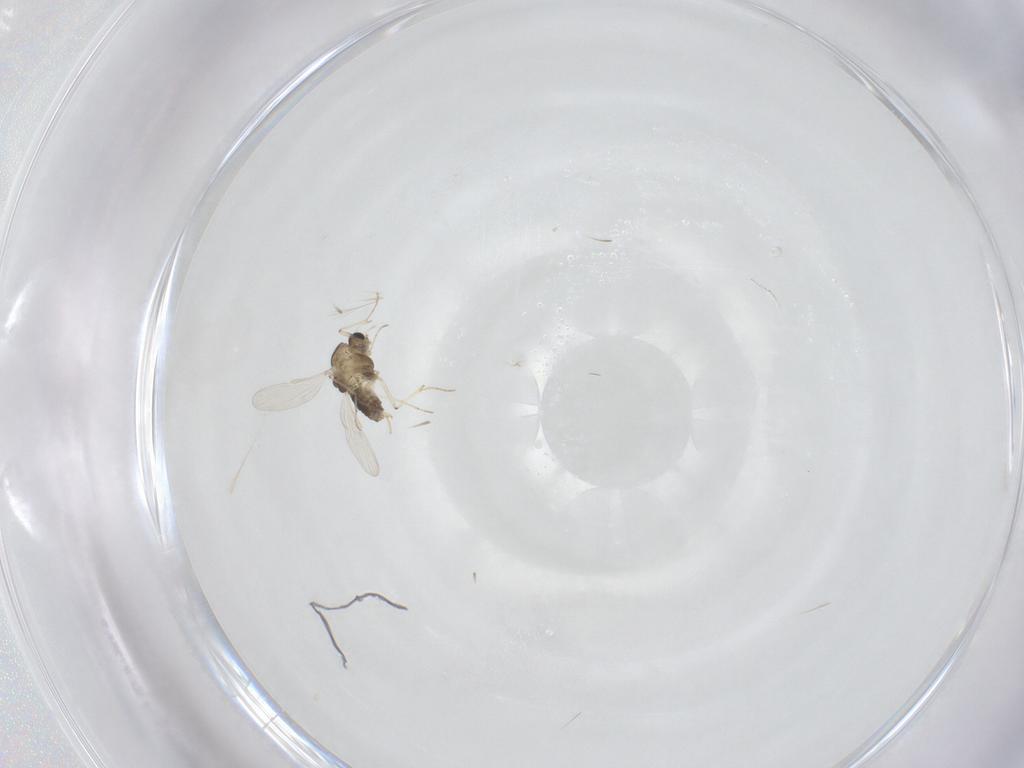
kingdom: Animalia
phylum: Arthropoda
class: Insecta
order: Diptera
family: Chironomidae
